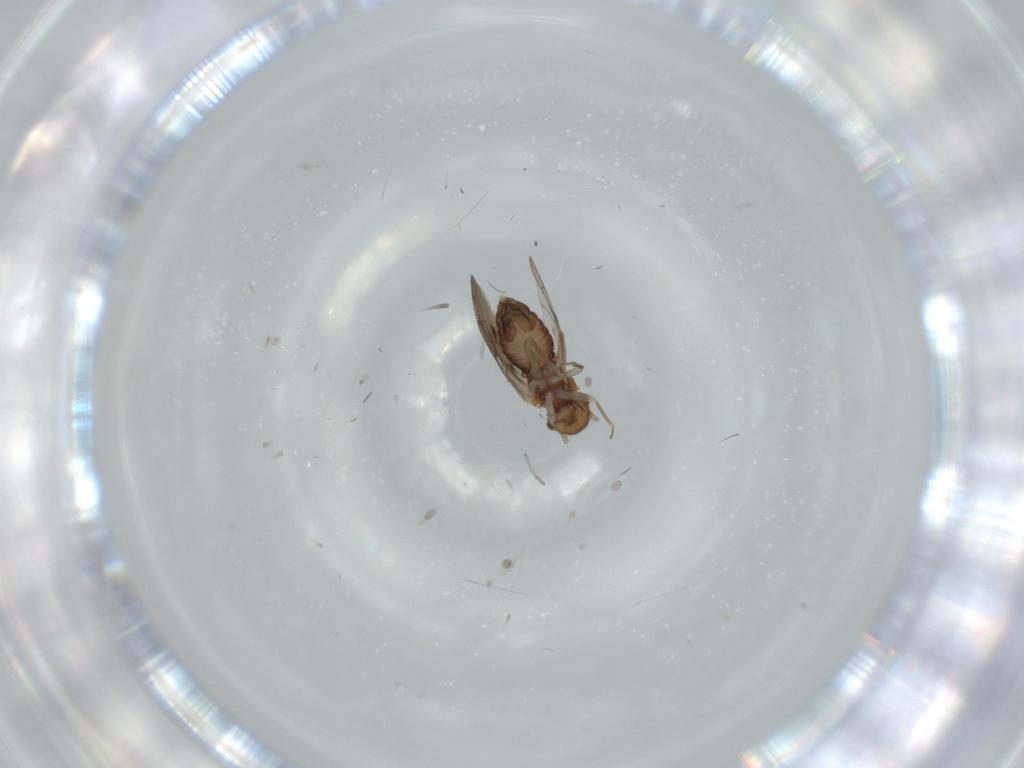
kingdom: Animalia
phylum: Arthropoda
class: Insecta
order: Psocodea
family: Ectopsocidae
